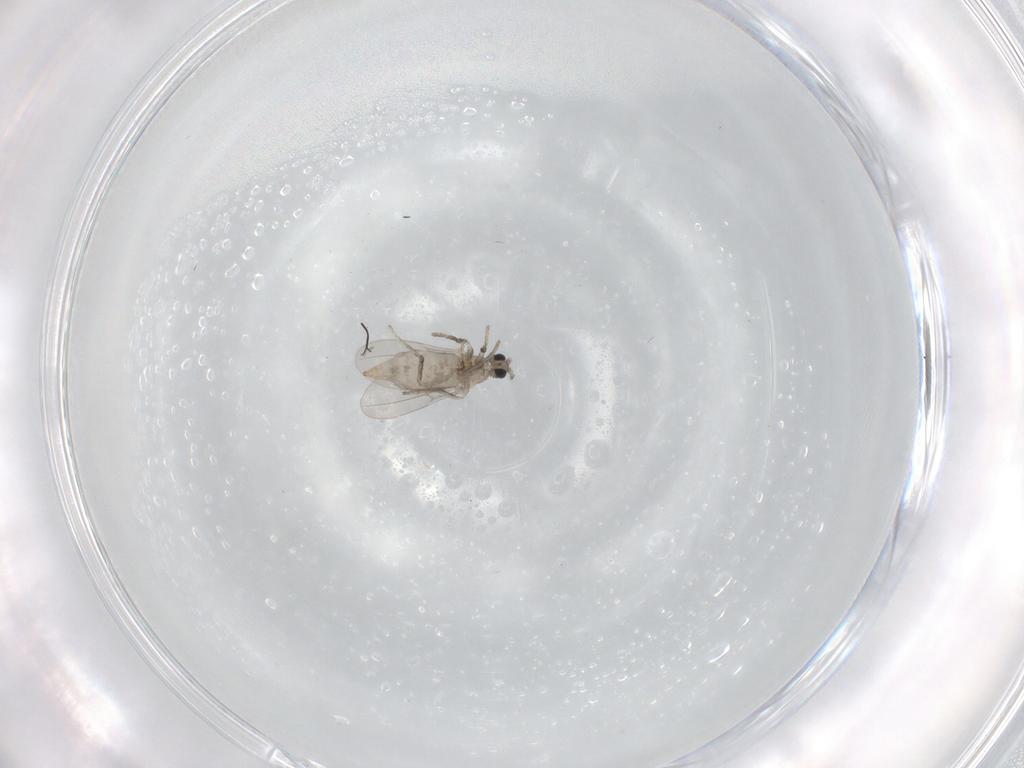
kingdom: Animalia
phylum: Arthropoda
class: Insecta
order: Diptera
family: Cecidomyiidae
